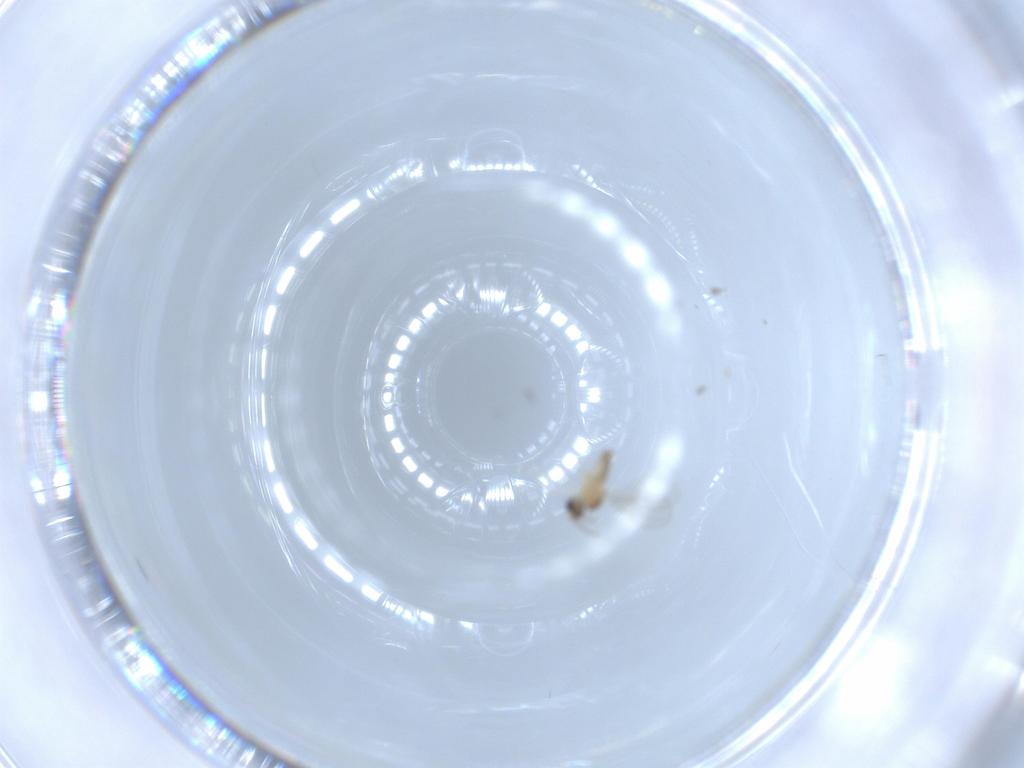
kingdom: Animalia
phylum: Arthropoda
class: Insecta
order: Diptera
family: Cecidomyiidae
